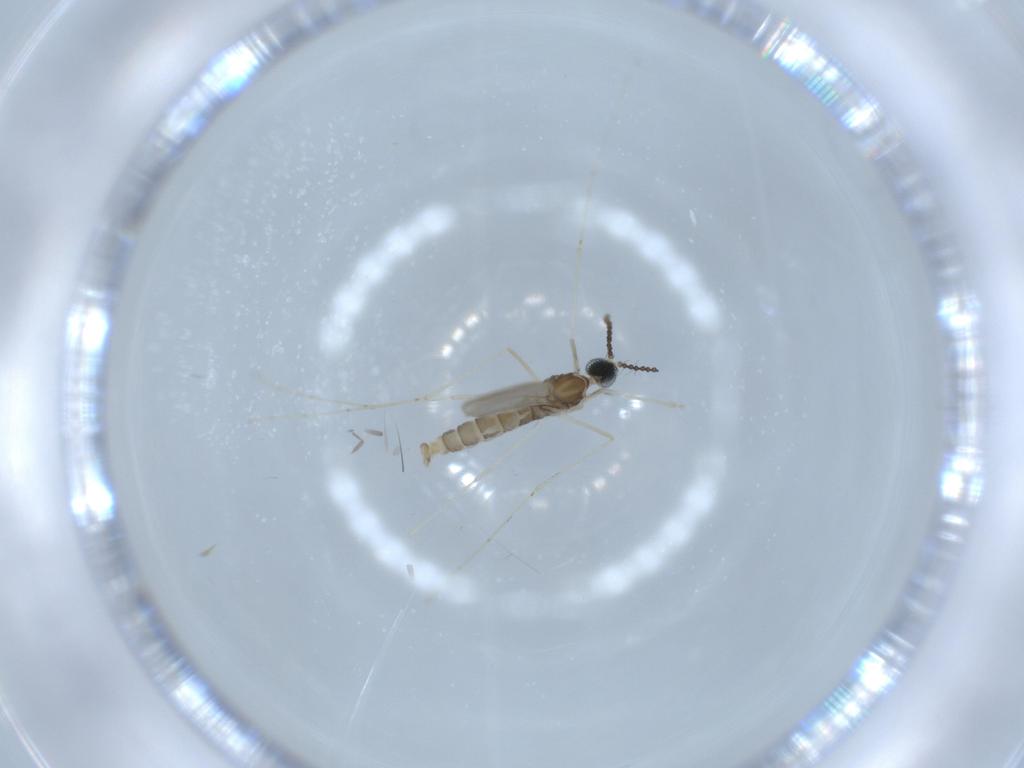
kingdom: Animalia
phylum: Arthropoda
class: Insecta
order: Diptera
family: Cecidomyiidae
